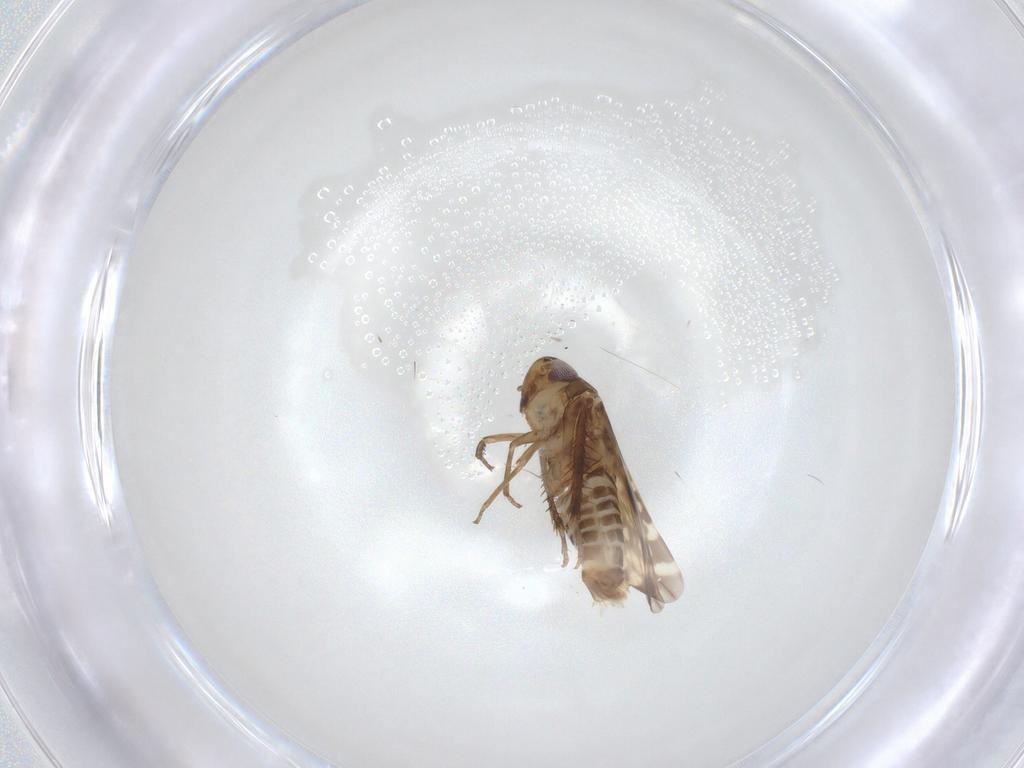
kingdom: Animalia
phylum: Arthropoda
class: Insecta
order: Hemiptera
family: Cicadellidae
